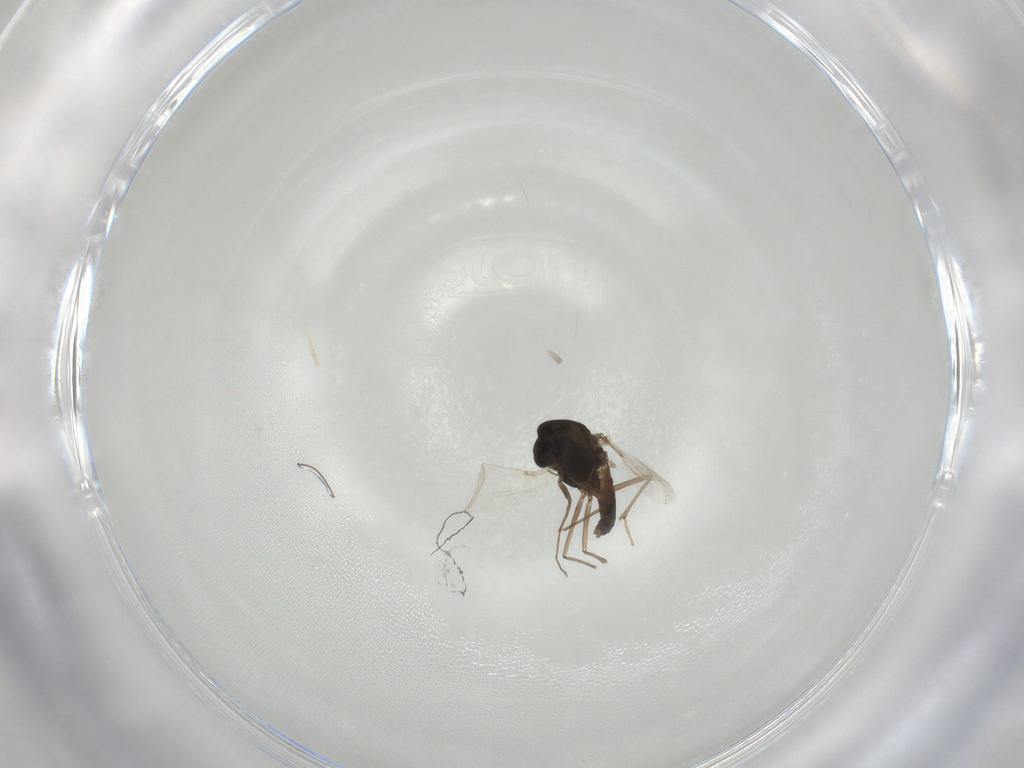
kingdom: Animalia
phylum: Arthropoda
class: Insecta
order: Diptera
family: Chironomidae
